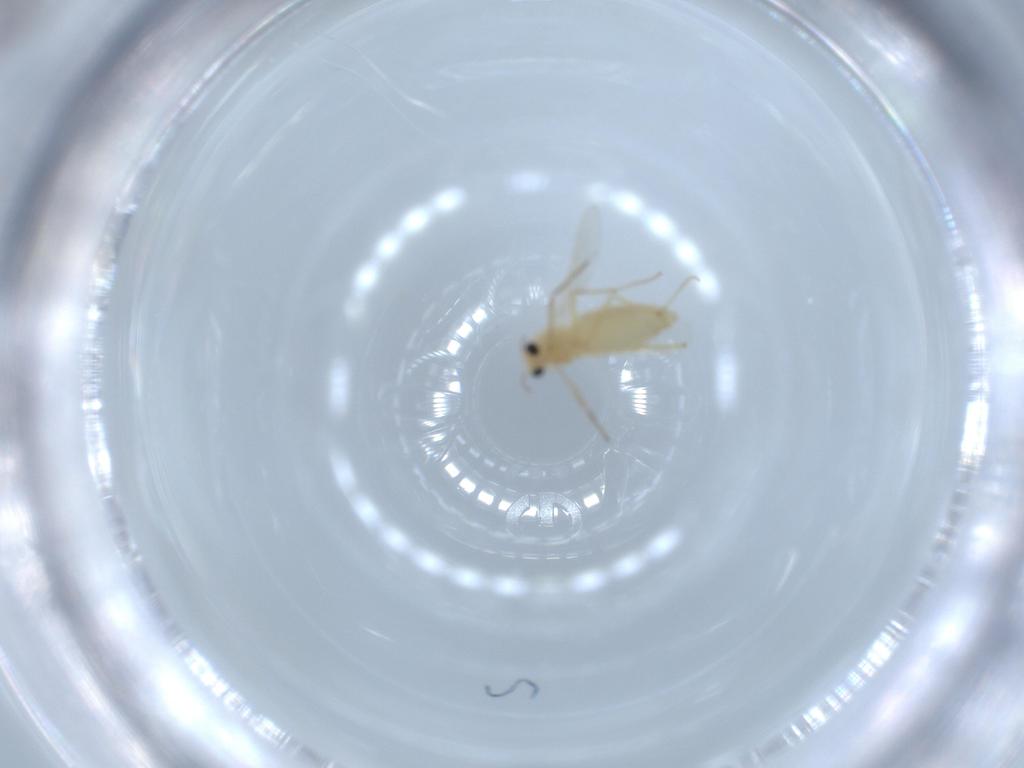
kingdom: Animalia
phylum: Arthropoda
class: Insecta
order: Diptera
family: Chironomidae
